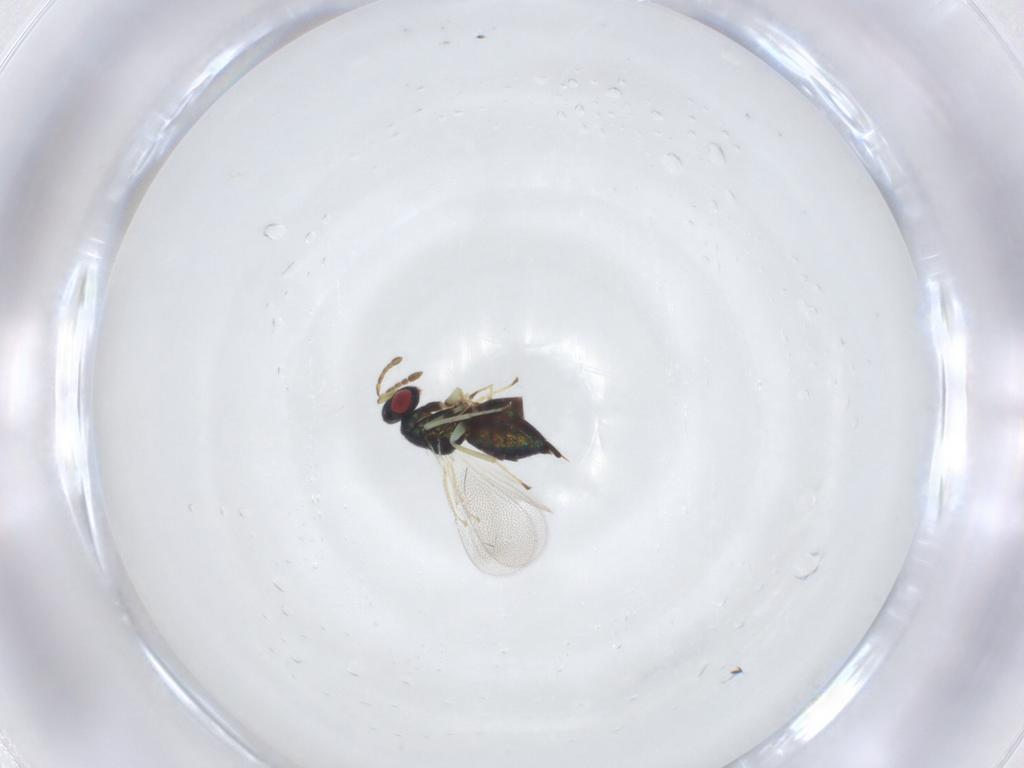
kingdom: Animalia
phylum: Arthropoda
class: Insecta
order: Hymenoptera
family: Eulophidae
